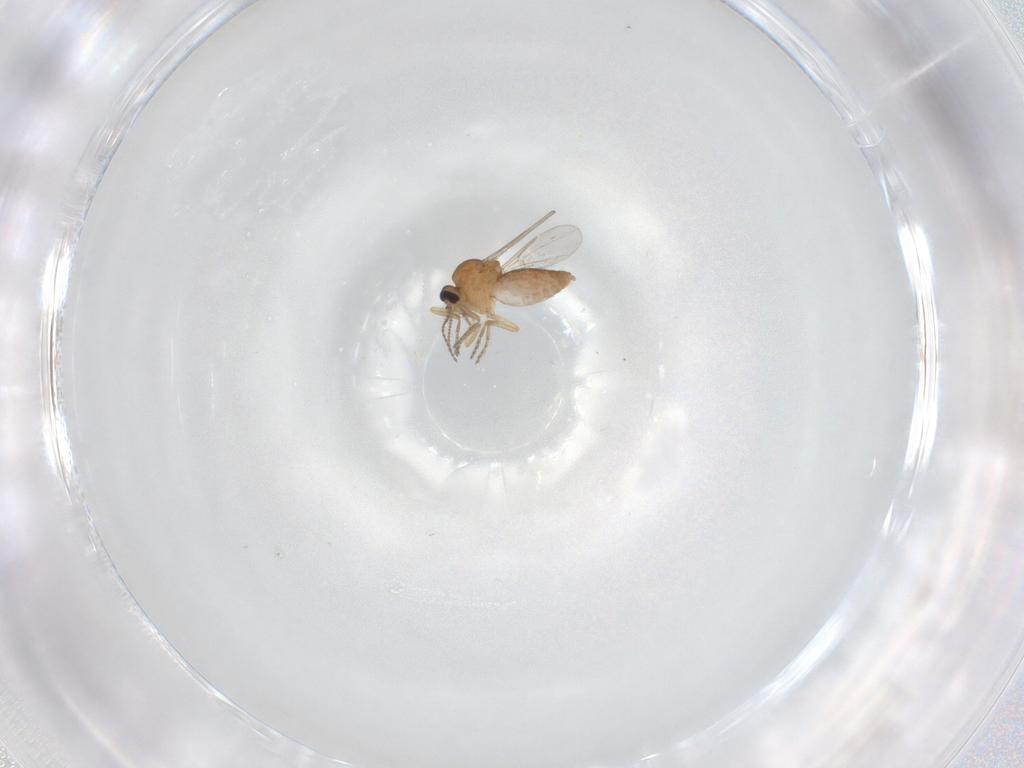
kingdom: Animalia
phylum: Arthropoda
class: Insecta
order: Diptera
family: Ceratopogonidae
